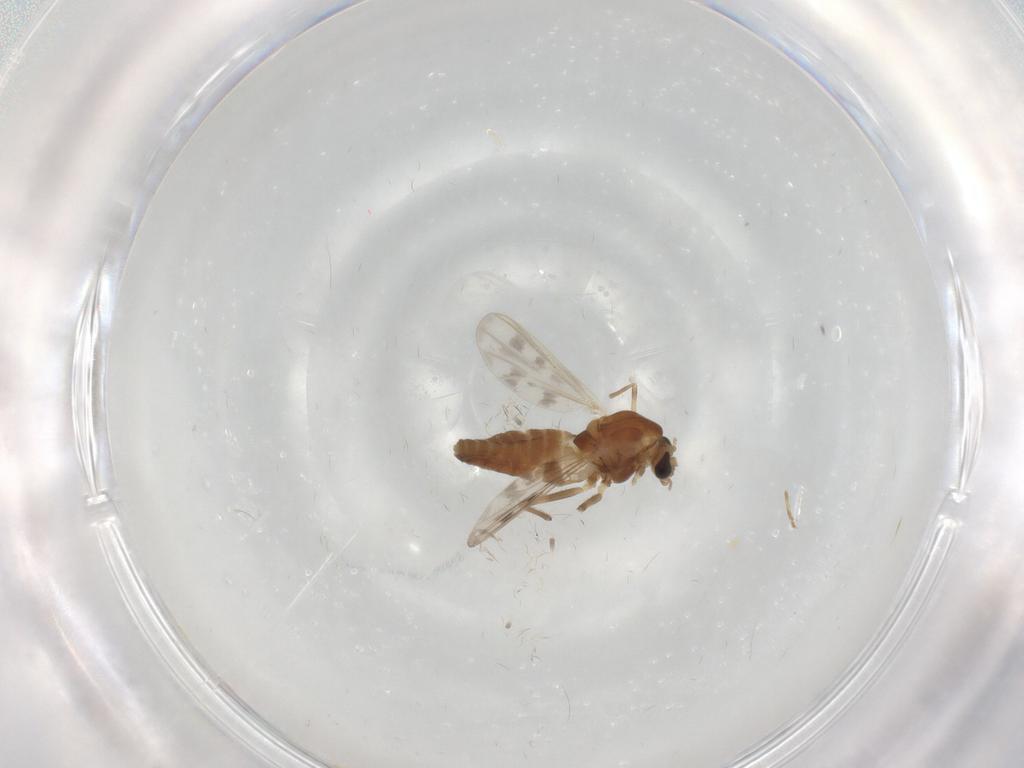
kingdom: Animalia
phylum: Arthropoda
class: Insecta
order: Diptera
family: Chironomidae
